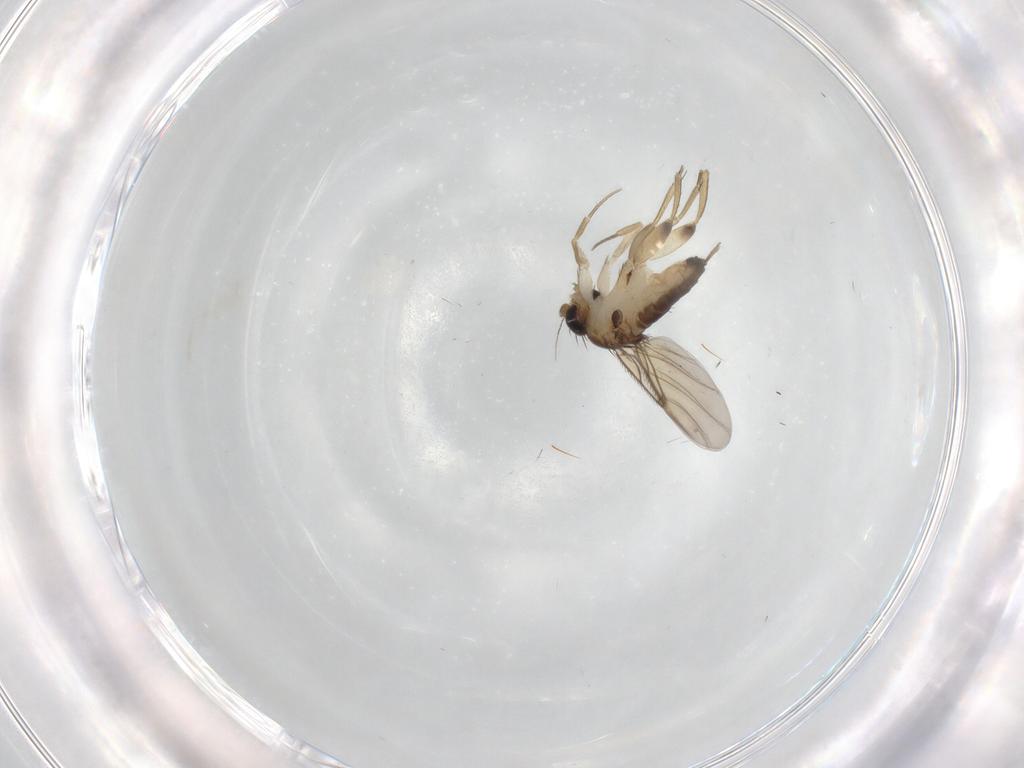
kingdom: Animalia
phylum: Arthropoda
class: Insecta
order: Diptera
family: Phoridae
